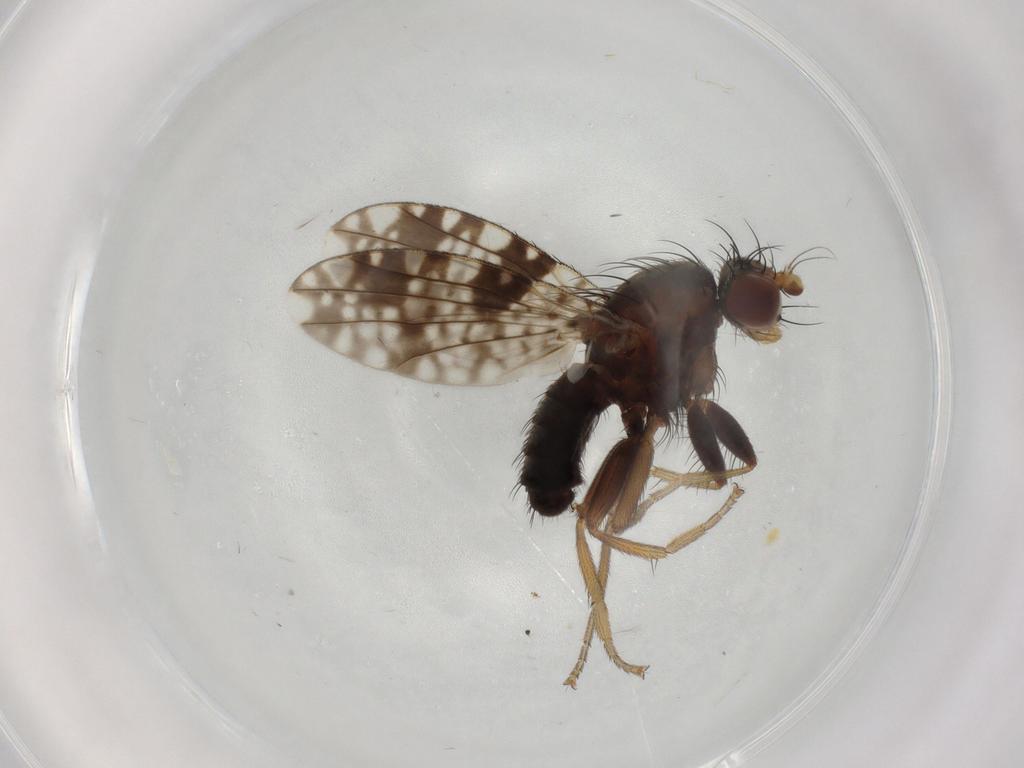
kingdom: Animalia
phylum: Arthropoda
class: Insecta
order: Diptera
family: Tephritidae
